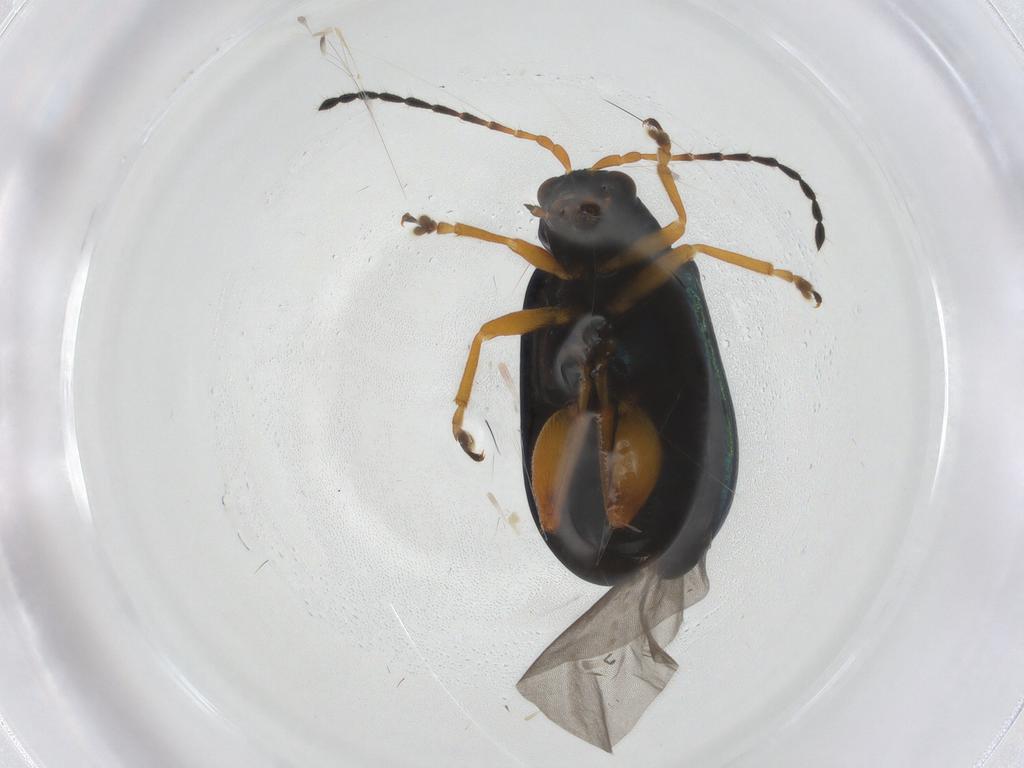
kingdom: Animalia
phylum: Arthropoda
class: Insecta
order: Coleoptera
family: Chrysomelidae
